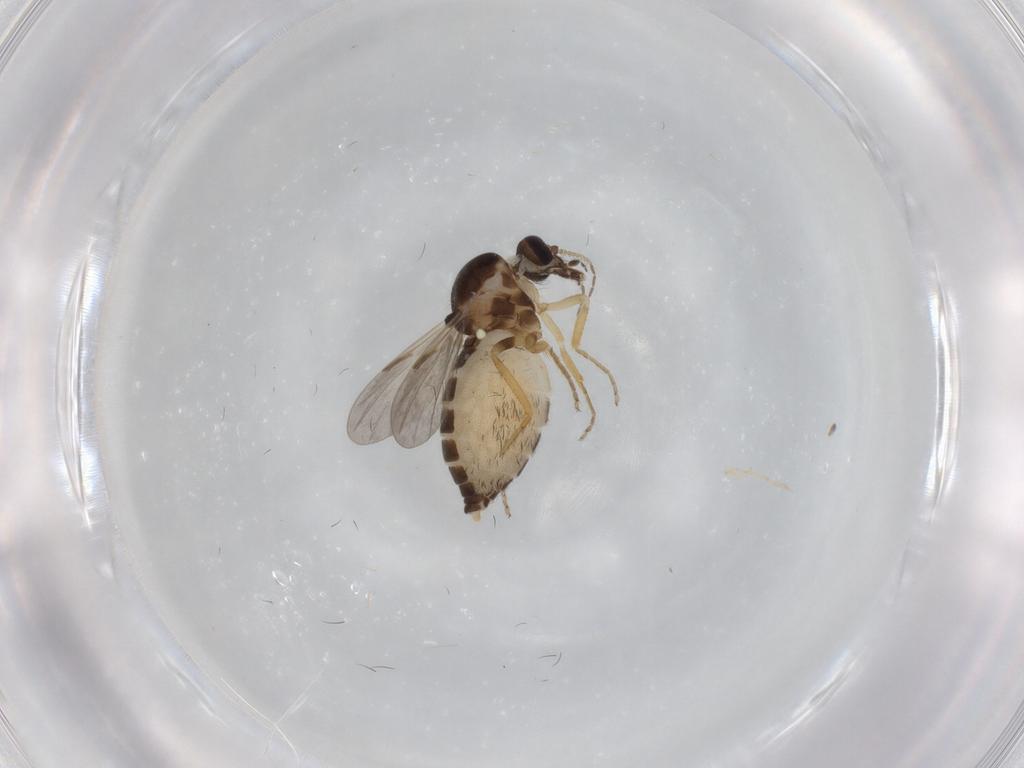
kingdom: Animalia
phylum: Arthropoda
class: Insecta
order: Diptera
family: Ceratopogonidae
